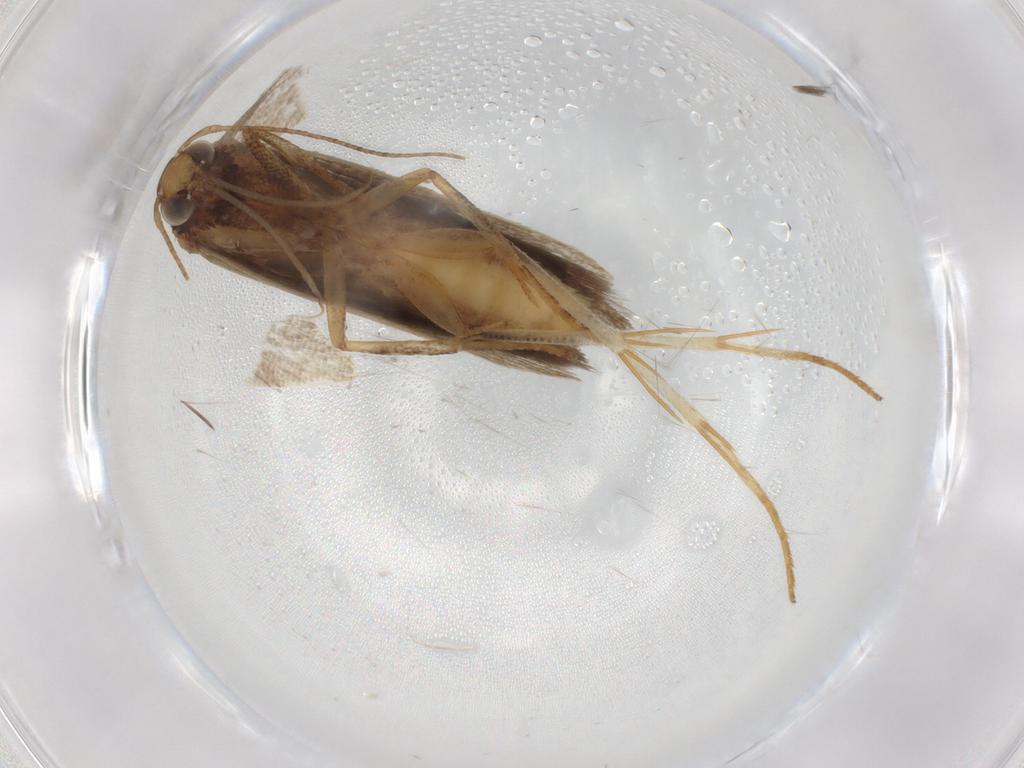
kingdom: Animalia
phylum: Arthropoda
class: Insecta
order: Lepidoptera
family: Gelechiidae
